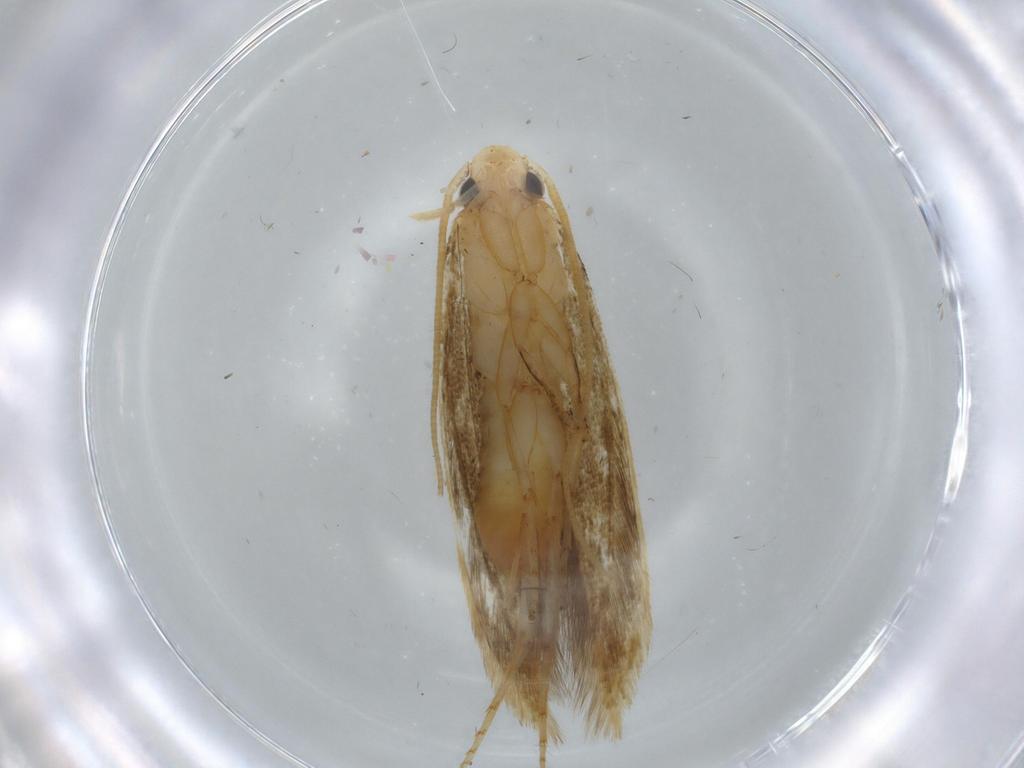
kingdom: Animalia
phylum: Arthropoda
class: Insecta
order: Lepidoptera
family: Tineidae
